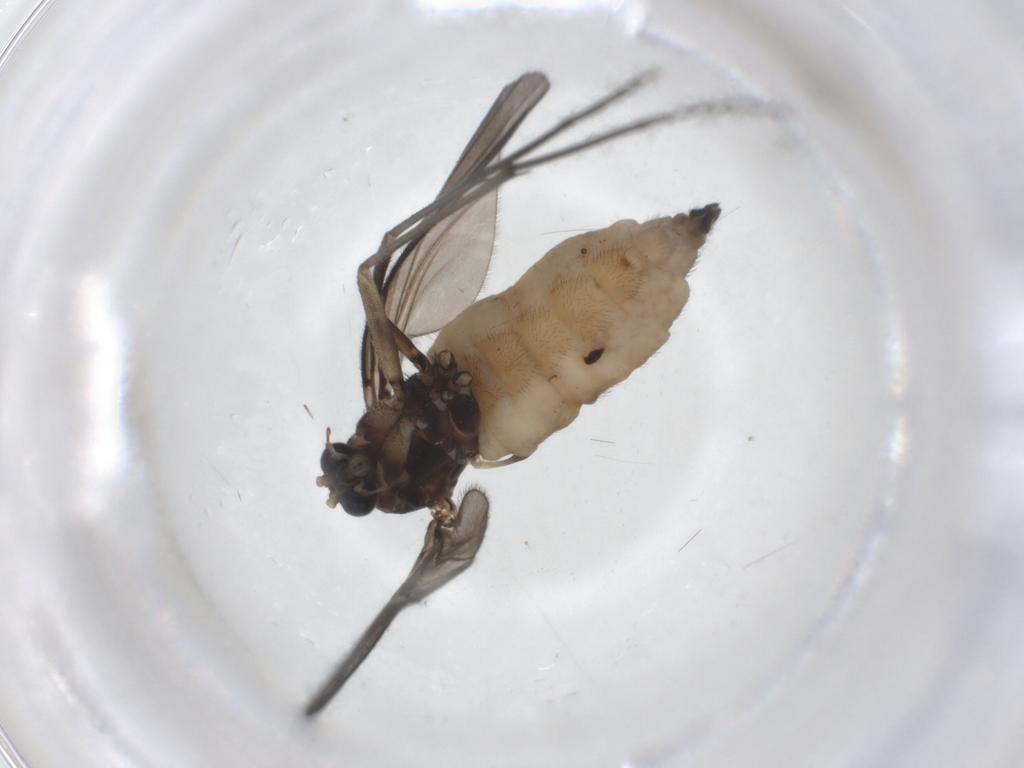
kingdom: Animalia
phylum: Arthropoda
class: Insecta
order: Diptera
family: Sciaridae
